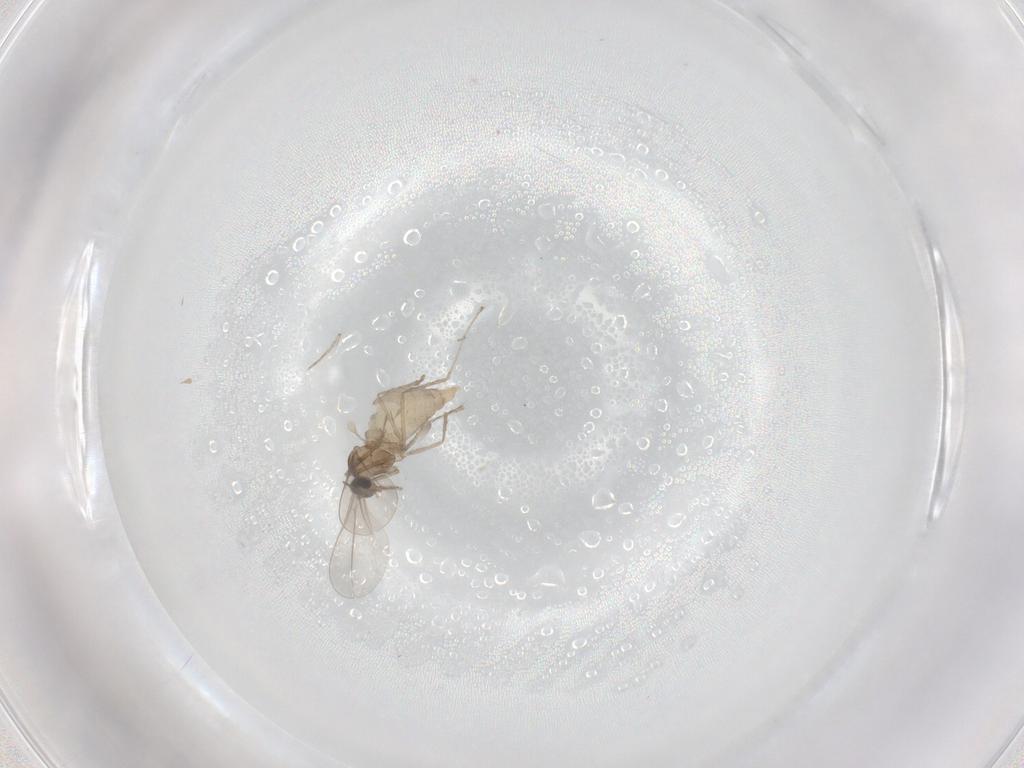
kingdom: Animalia
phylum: Arthropoda
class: Insecta
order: Diptera
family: Cecidomyiidae
